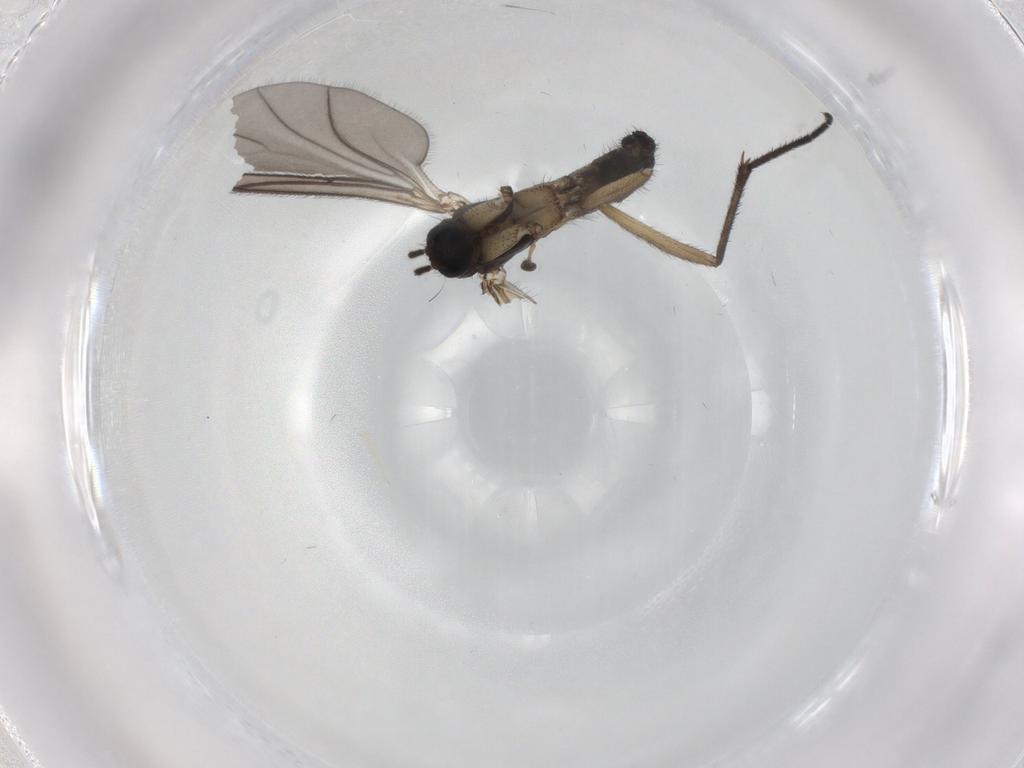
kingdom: Animalia
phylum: Arthropoda
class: Insecta
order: Diptera
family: Sciaridae
